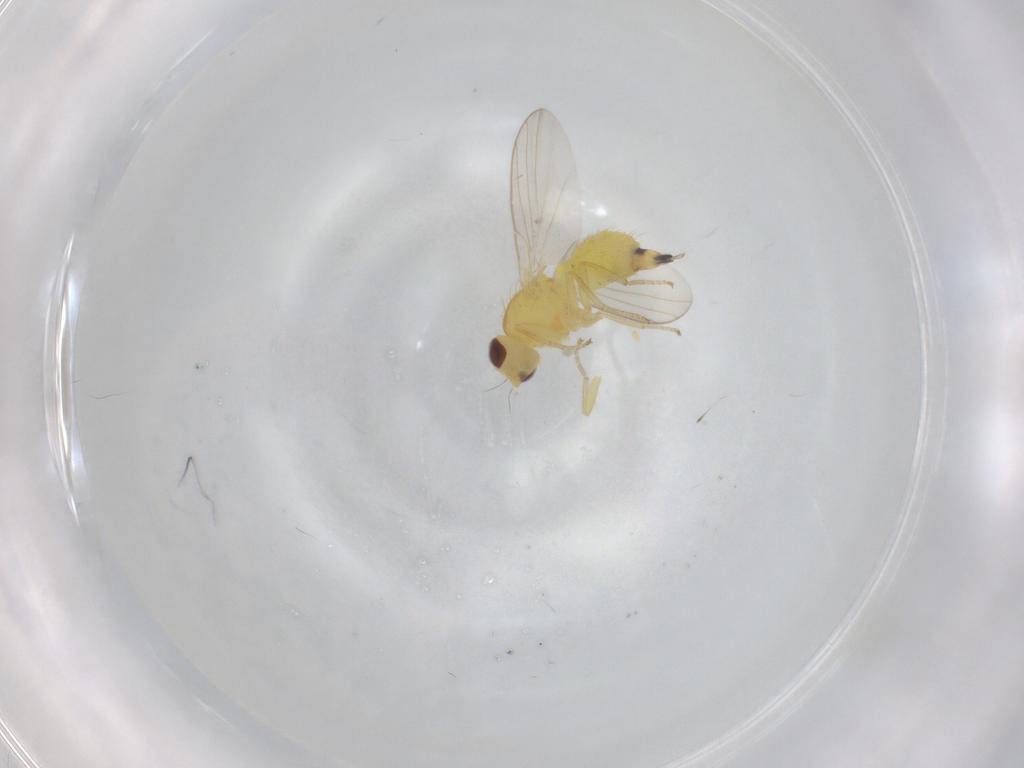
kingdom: Animalia
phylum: Arthropoda
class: Insecta
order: Diptera
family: Agromyzidae
